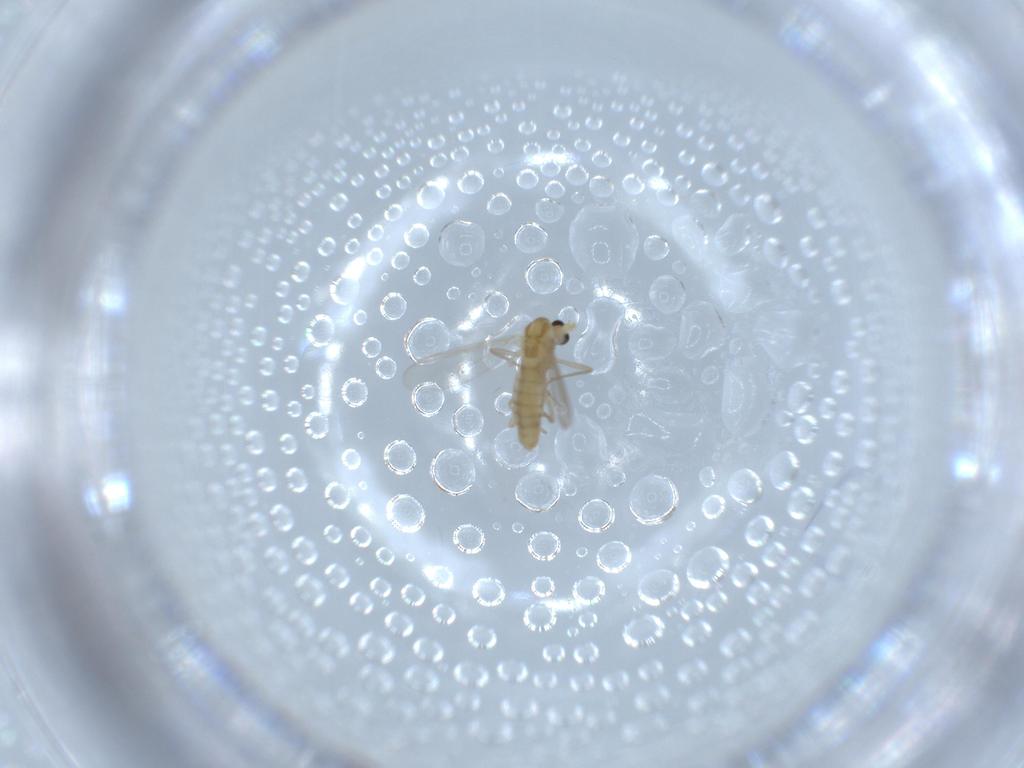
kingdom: Animalia
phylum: Arthropoda
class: Insecta
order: Diptera
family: Chironomidae
